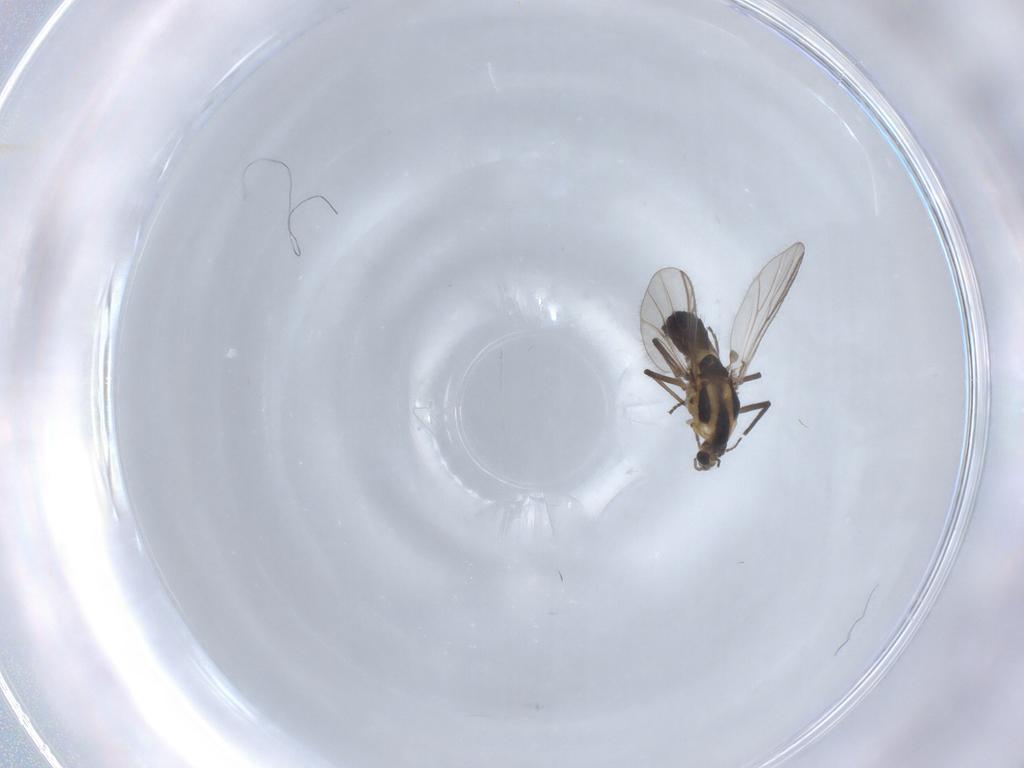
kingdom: Animalia
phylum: Arthropoda
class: Insecta
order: Diptera
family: Chironomidae
